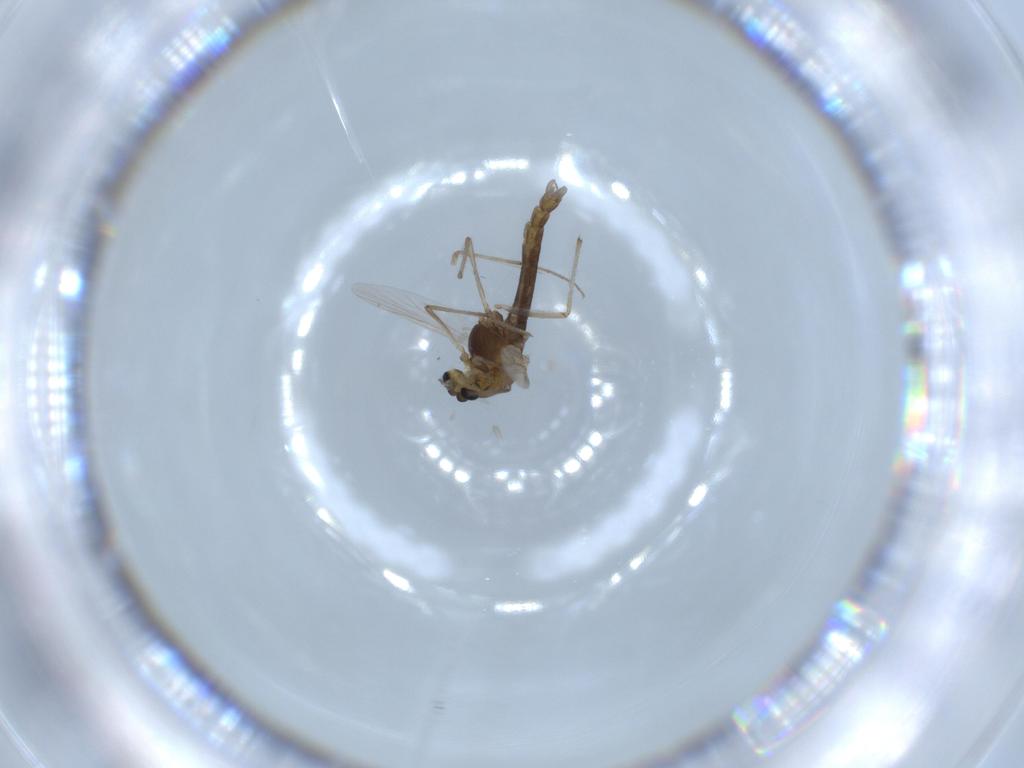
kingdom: Animalia
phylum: Arthropoda
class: Insecta
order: Diptera
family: Chironomidae
